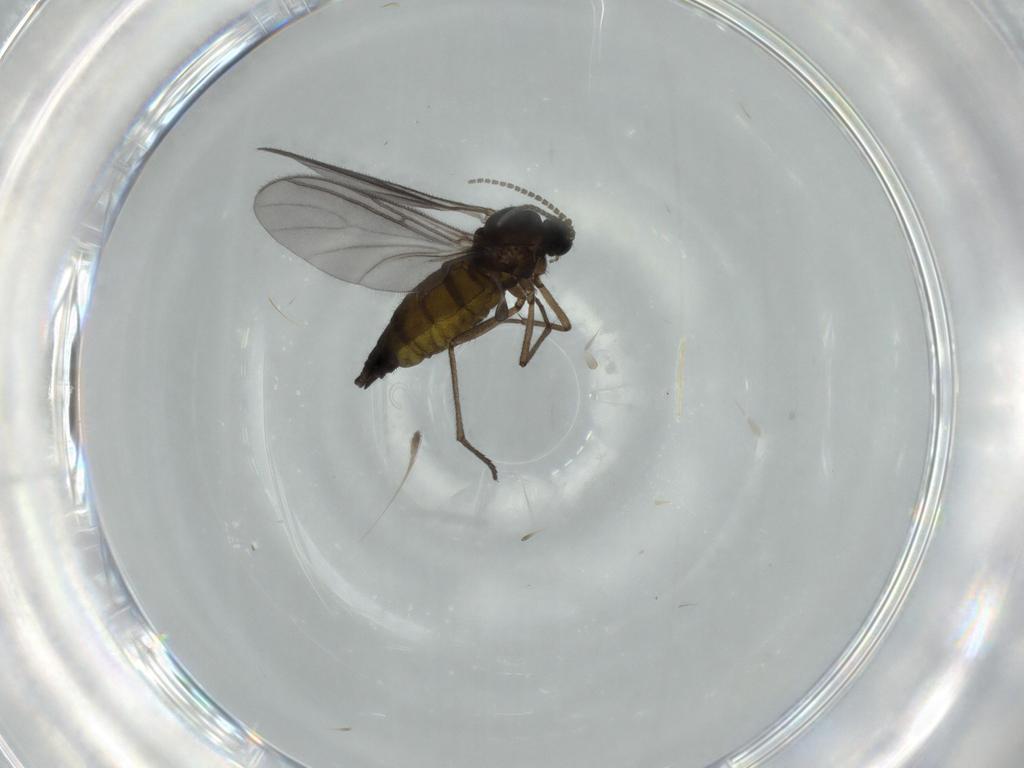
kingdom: Animalia
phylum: Arthropoda
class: Insecta
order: Diptera
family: Sciaridae
